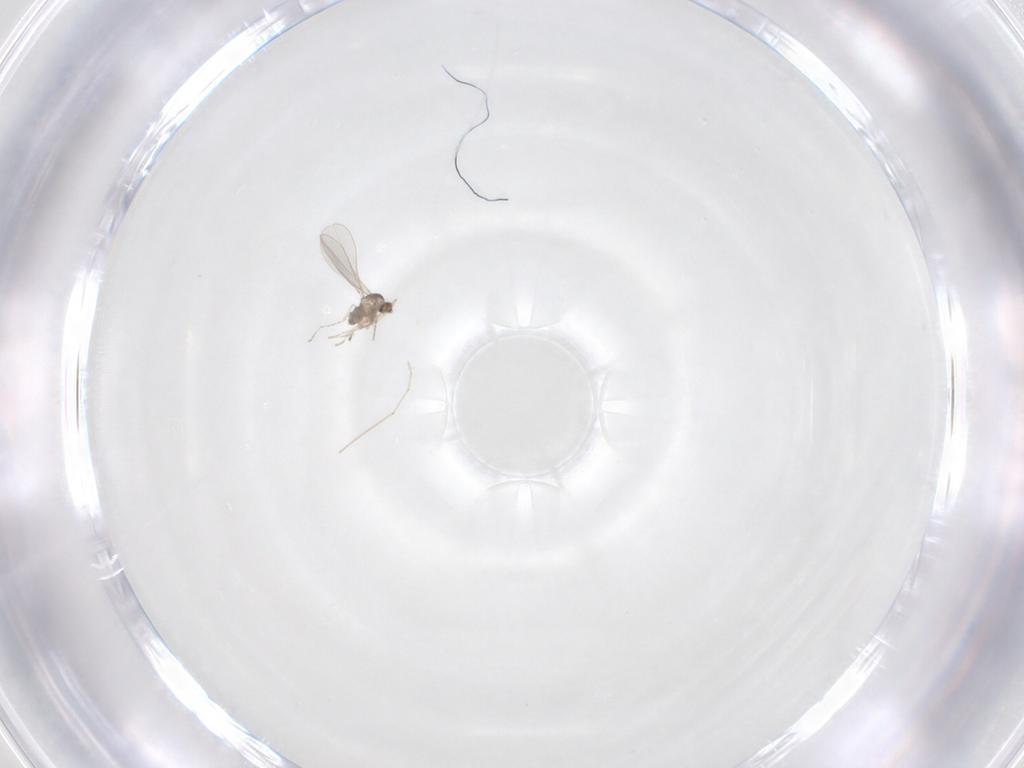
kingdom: Animalia
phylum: Arthropoda
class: Insecta
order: Diptera
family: Cecidomyiidae
